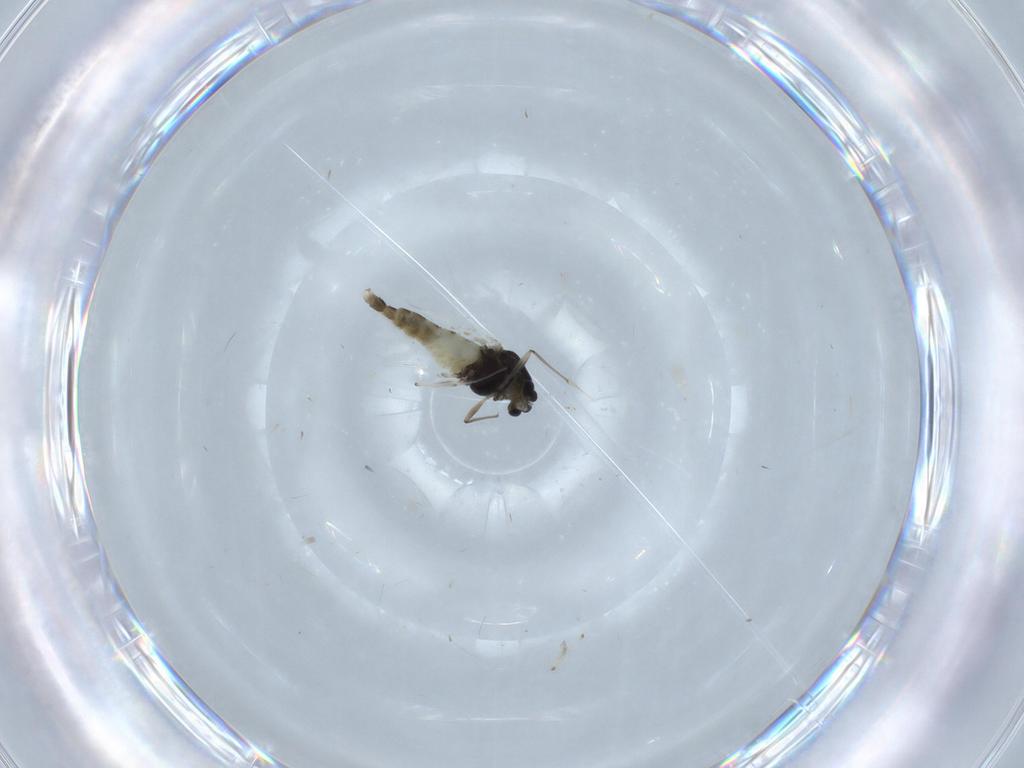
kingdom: Animalia
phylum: Arthropoda
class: Insecta
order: Diptera
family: Chironomidae
